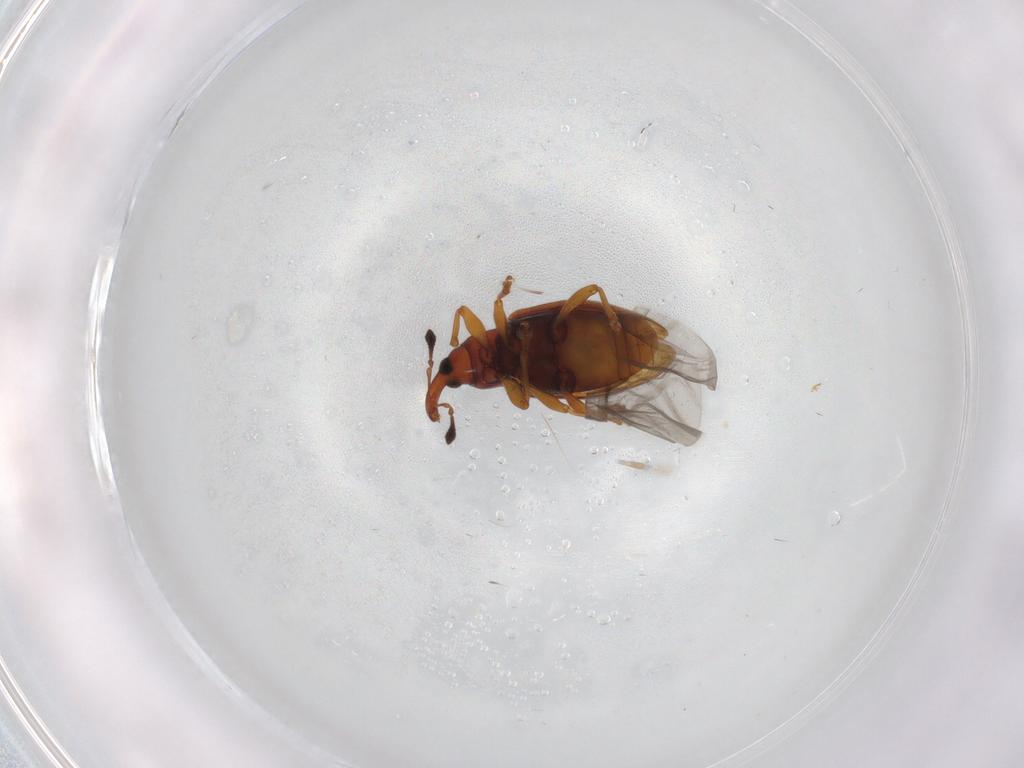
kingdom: Animalia
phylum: Arthropoda
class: Insecta
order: Coleoptera
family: Curculionidae
